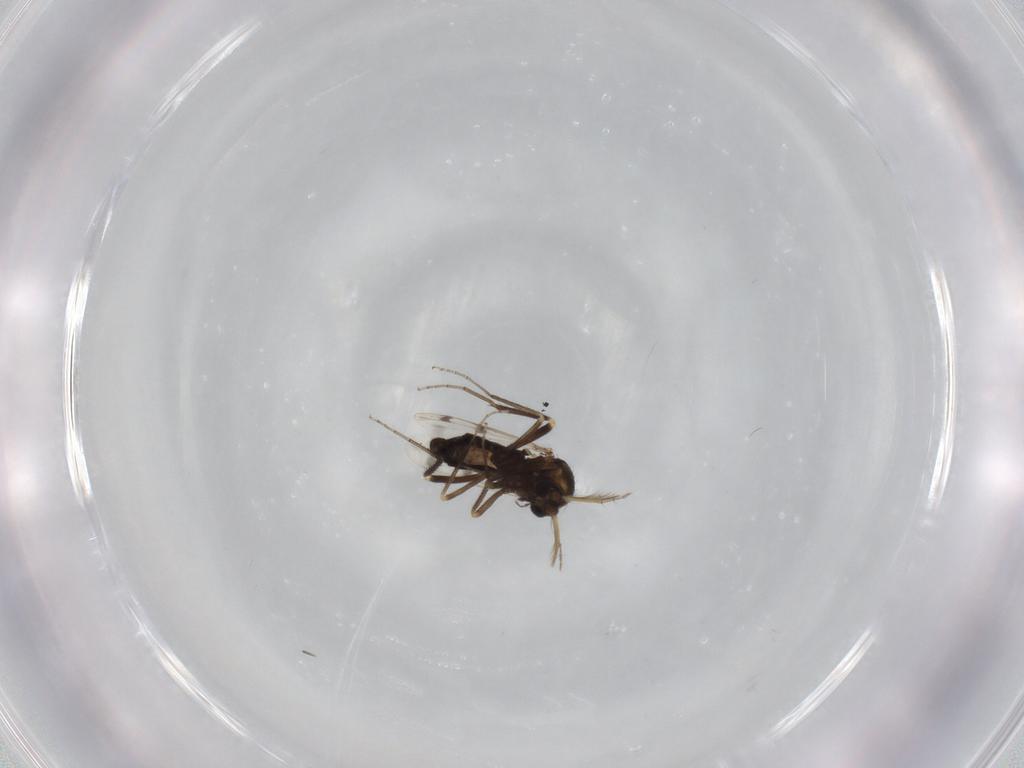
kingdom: Animalia
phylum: Arthropoda
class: Insecta
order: Diptera
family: Ceratopogonidae
